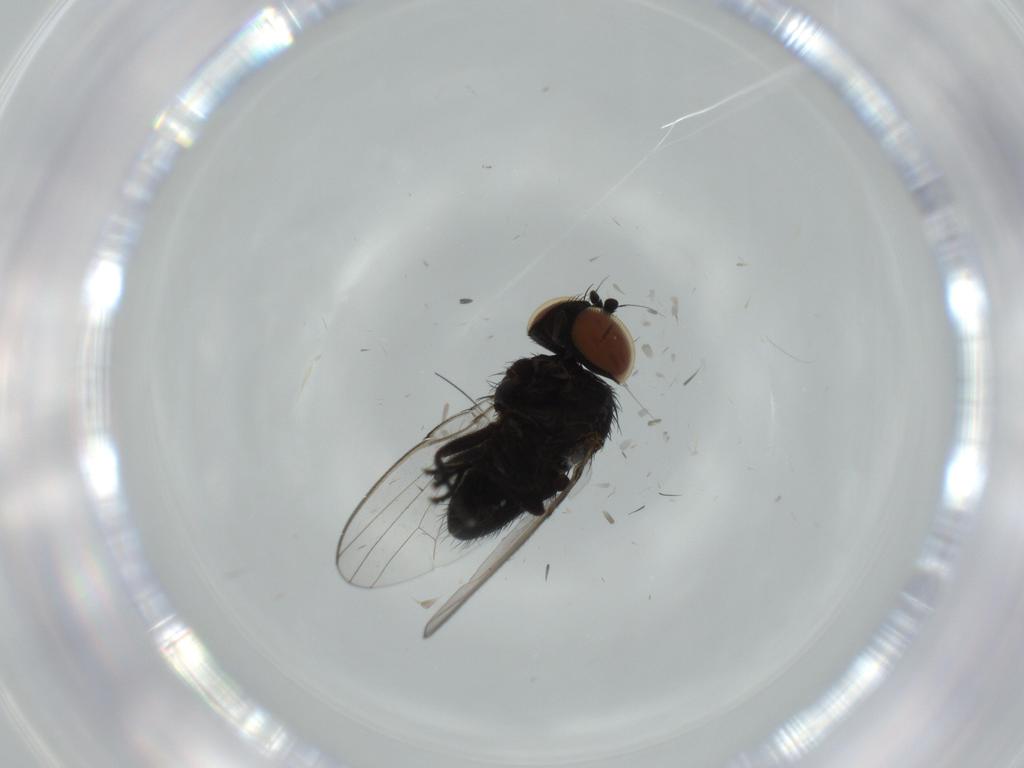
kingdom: Animalia
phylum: Arthropoda
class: Insecta
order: Diptera
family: Milichiidae
